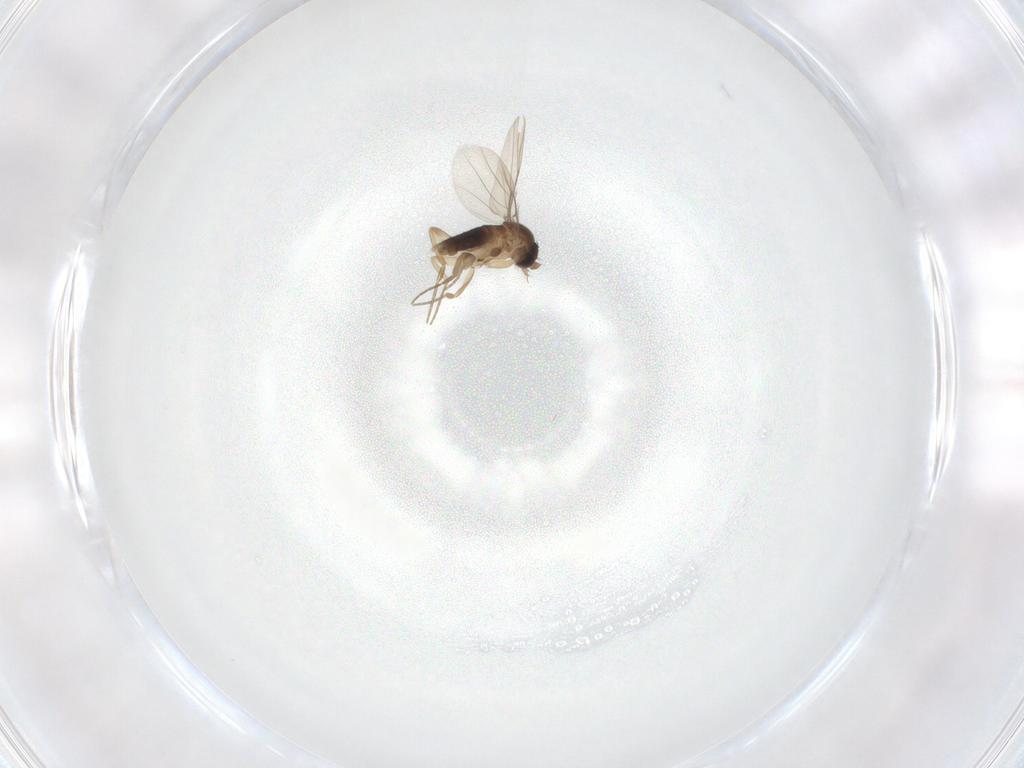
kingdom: Animalia
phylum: Arthropoda
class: Insecta
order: Diptera
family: Phoridae
